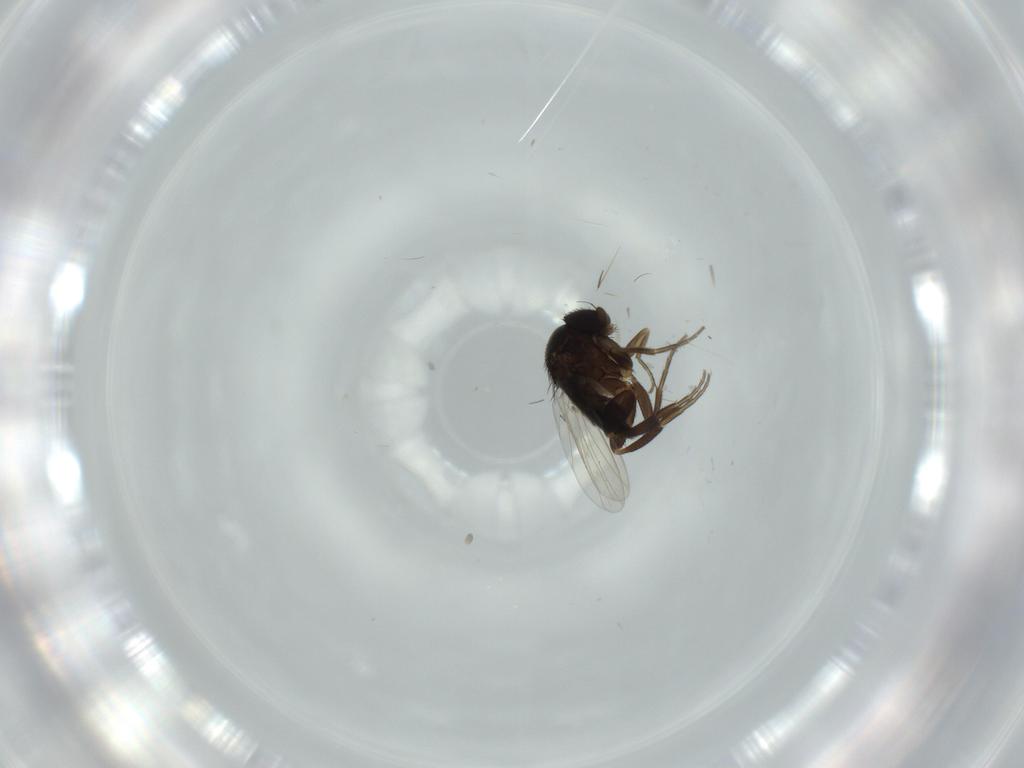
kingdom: Animalia
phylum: Arthropoda
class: Insecta
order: Diptera
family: Phoridae
